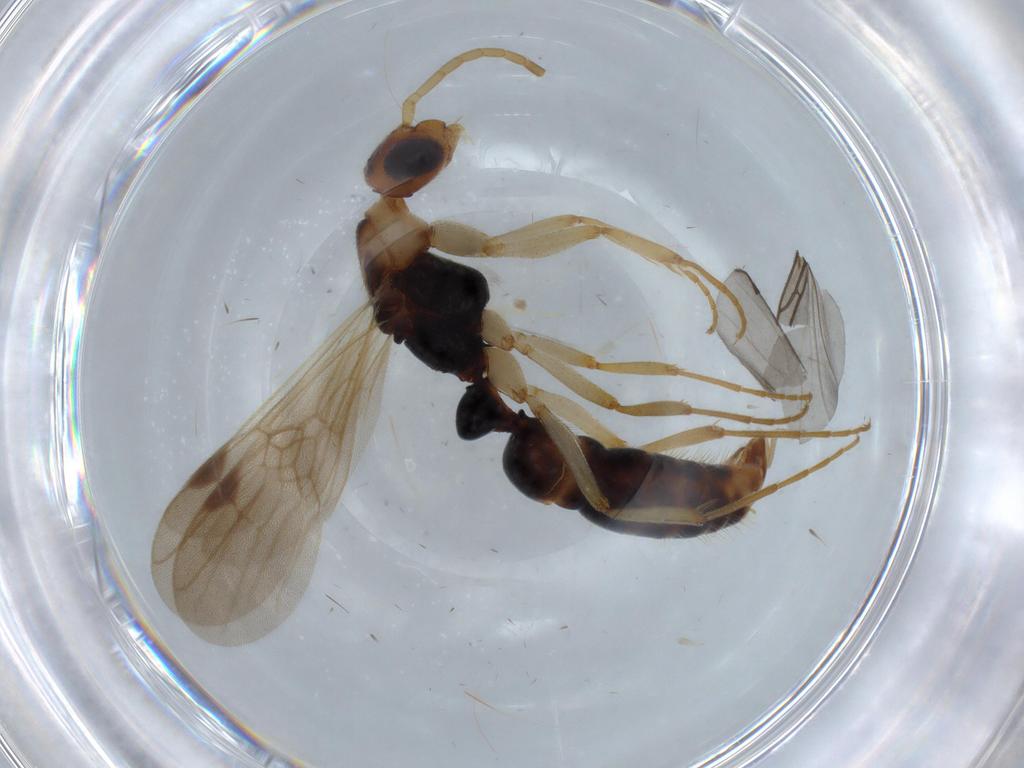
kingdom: Animalia
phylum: Arthropoda
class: Insecta
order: Hymenoptera
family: Formicidae
